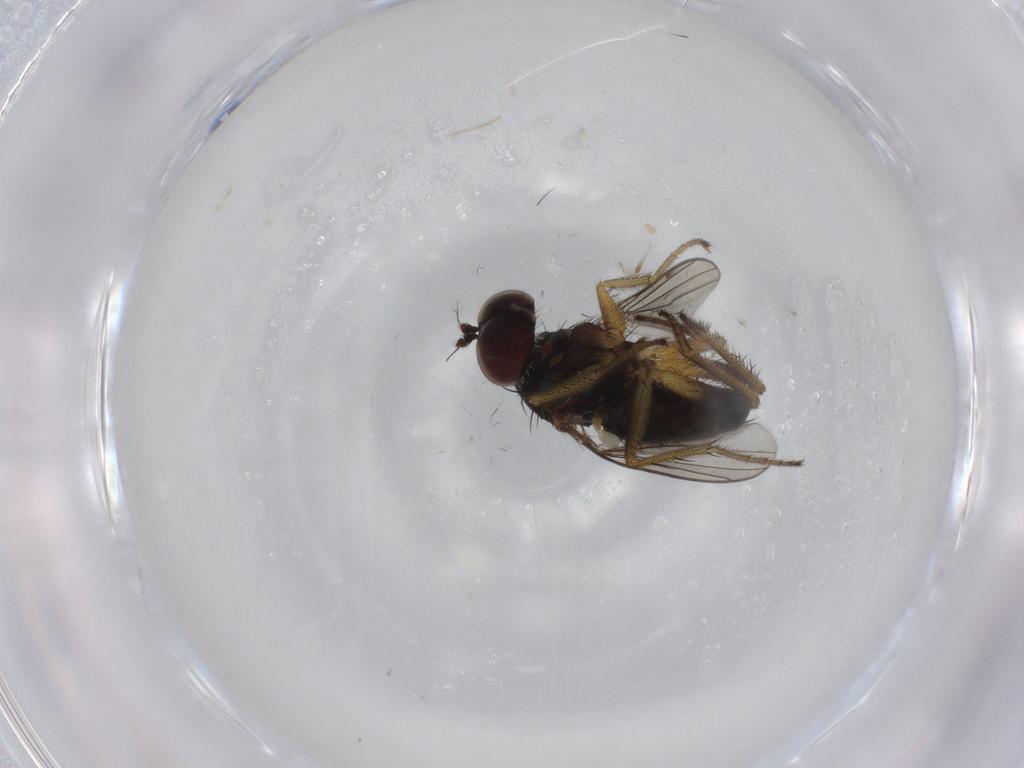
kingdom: Animalia
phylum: Arthropoda
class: Insecta
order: Diptera
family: Dolichopodidae
